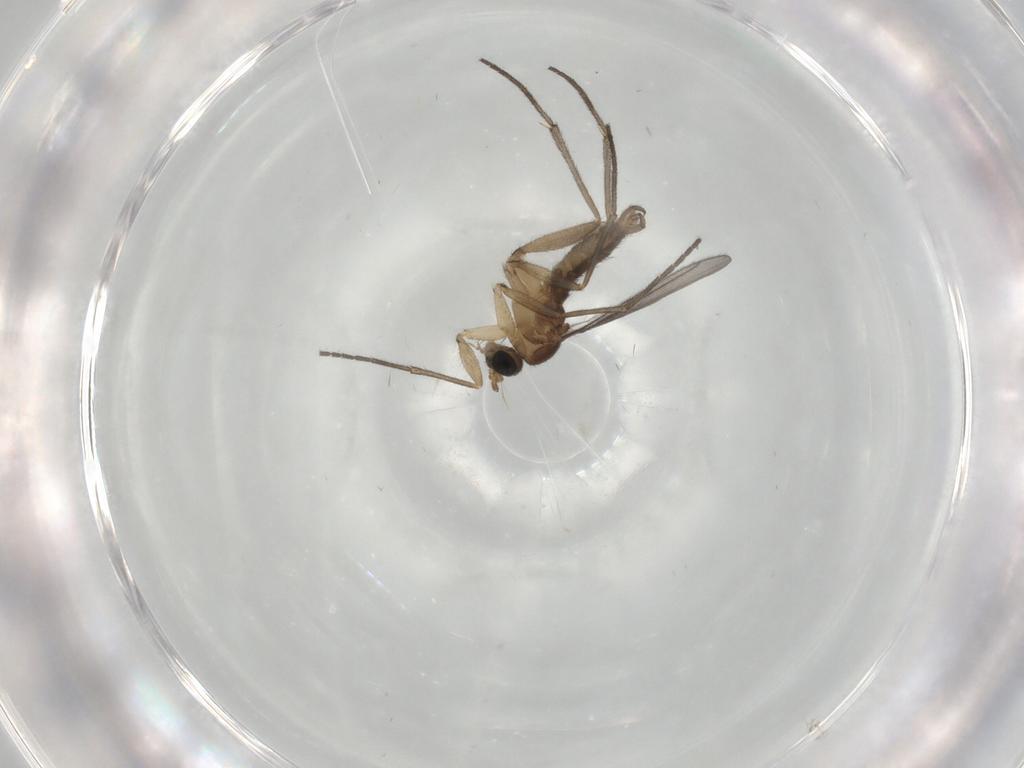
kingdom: Animalia
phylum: Arthropoda
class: Insecta
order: Diptera
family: Sciaridae
